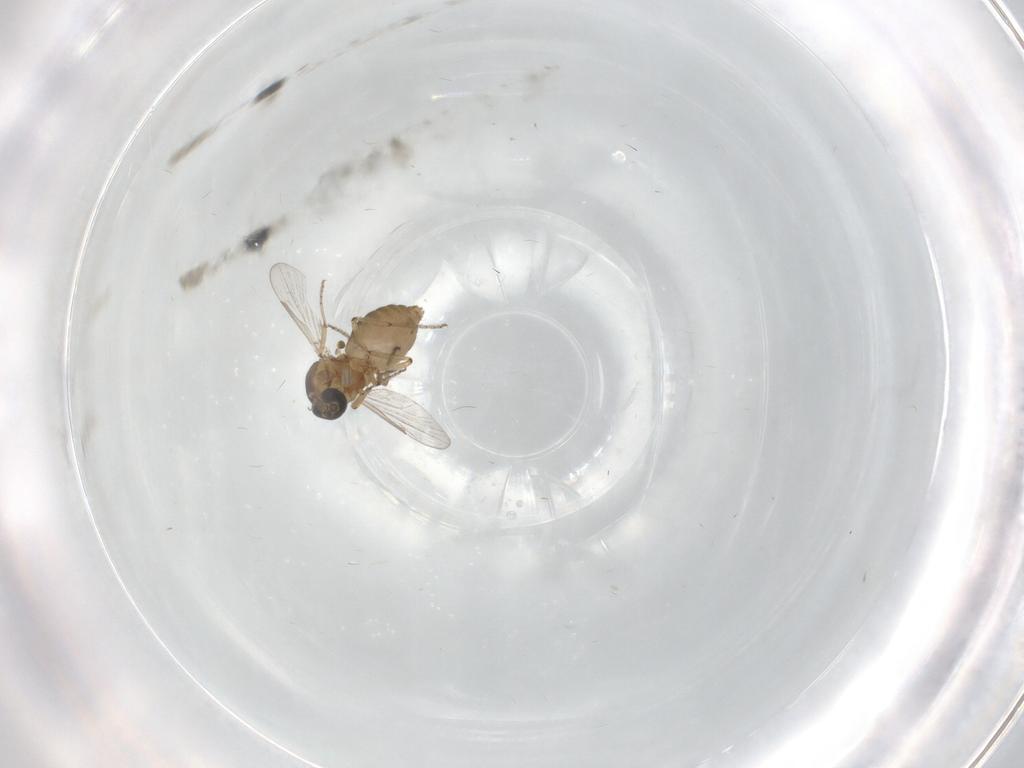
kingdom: Animalia
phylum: Arthropoda
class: Insecta
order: Diptera
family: Ceratopogonidae
